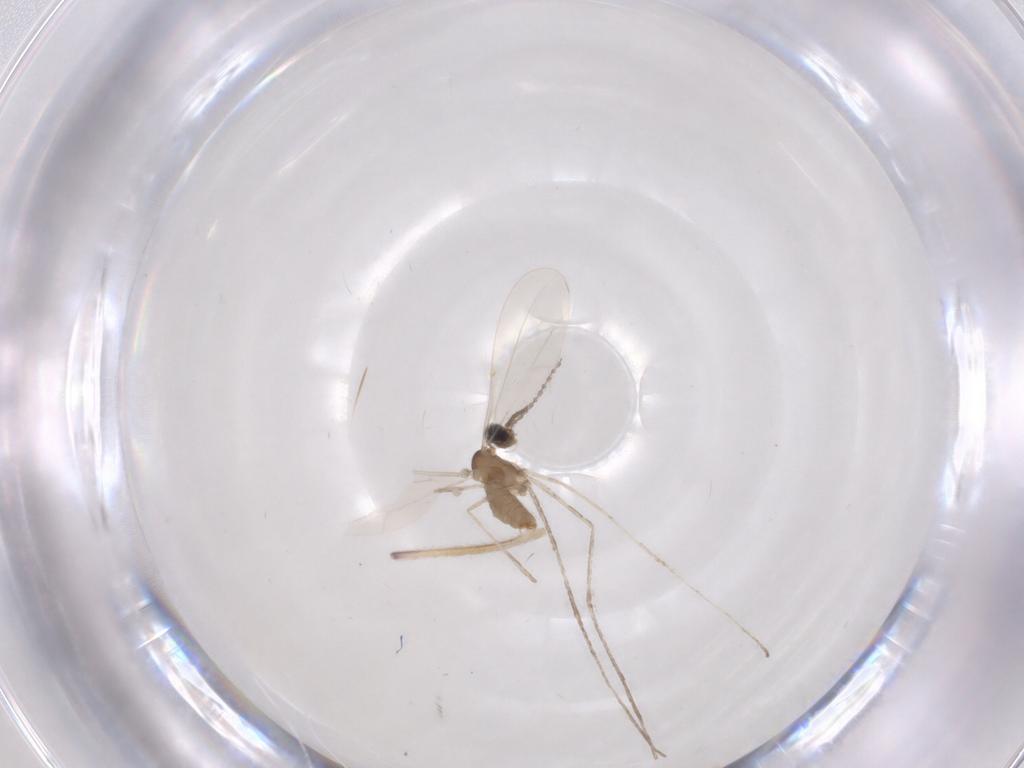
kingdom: Animalia
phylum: Arthropoda
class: Insecta
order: Diptera
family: Cecidomyiidae
